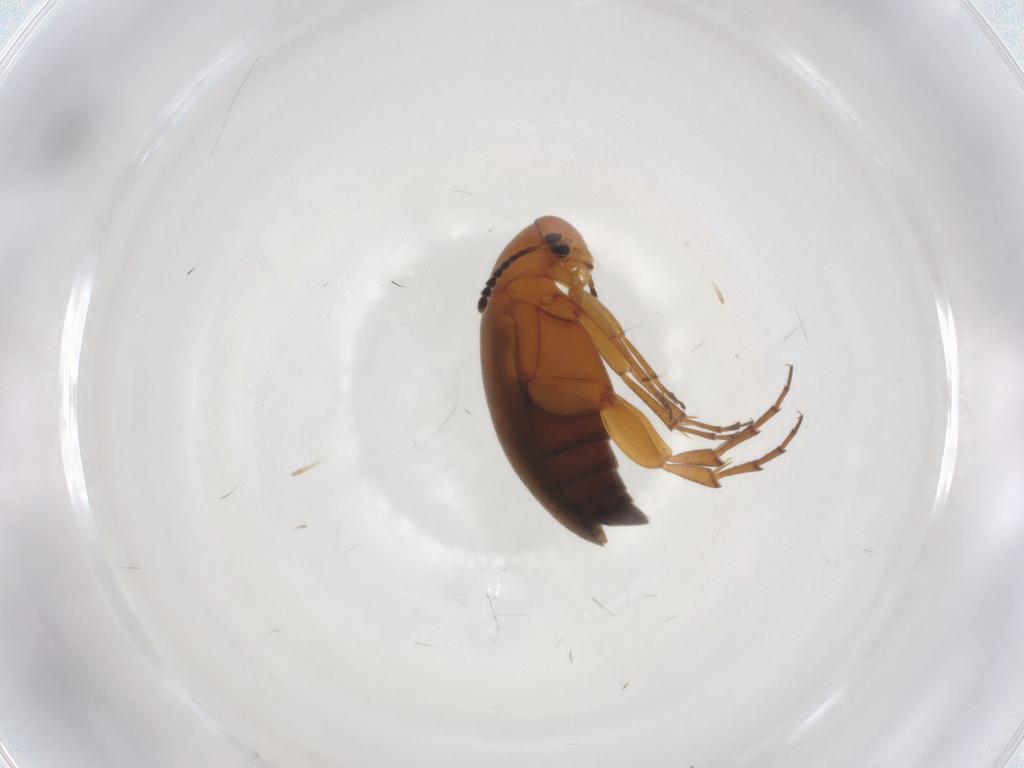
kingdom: Animalia
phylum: Arthropoda
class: Insecta
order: Coleoptera
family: Scraptiidae
